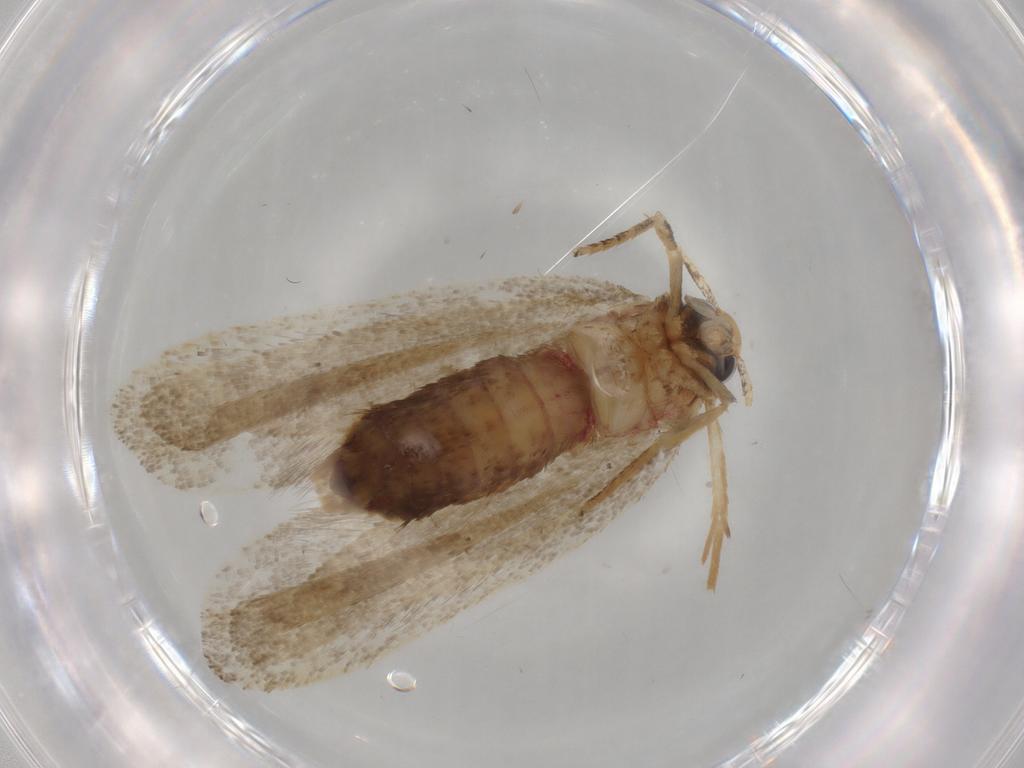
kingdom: Animalia
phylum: Arthropoda
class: Insecta
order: Lepidoptera
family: Lecithoceridae
